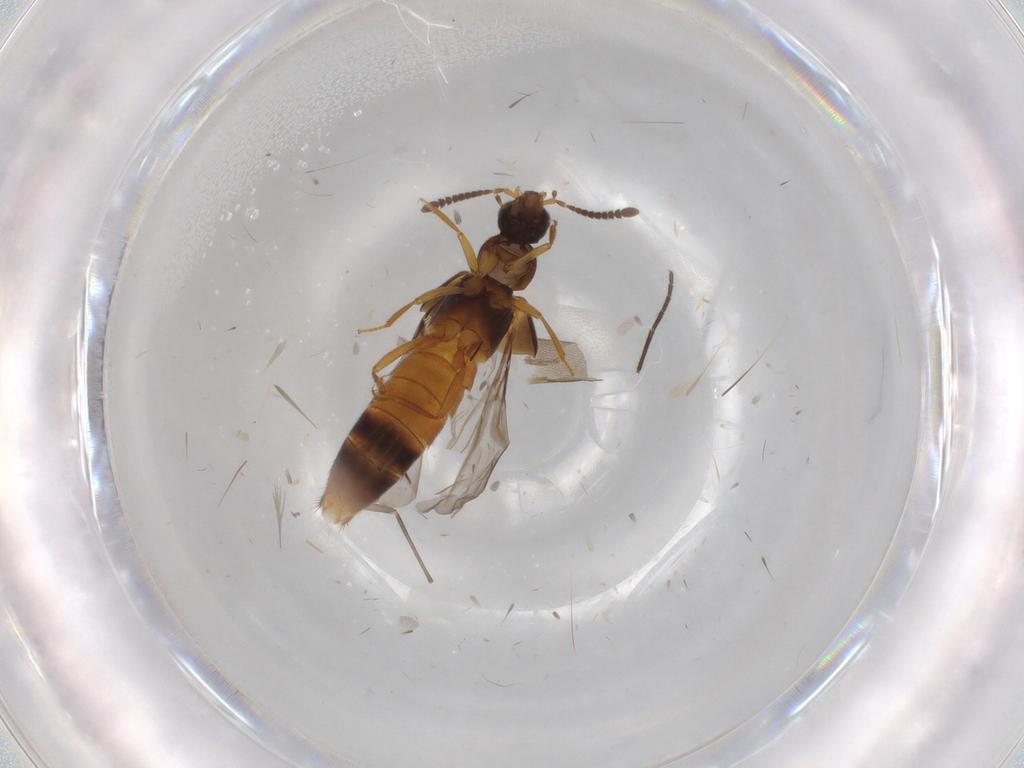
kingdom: Animalia
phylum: Arthropoda
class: Insecta
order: Coleoptera
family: Staphylinidae
